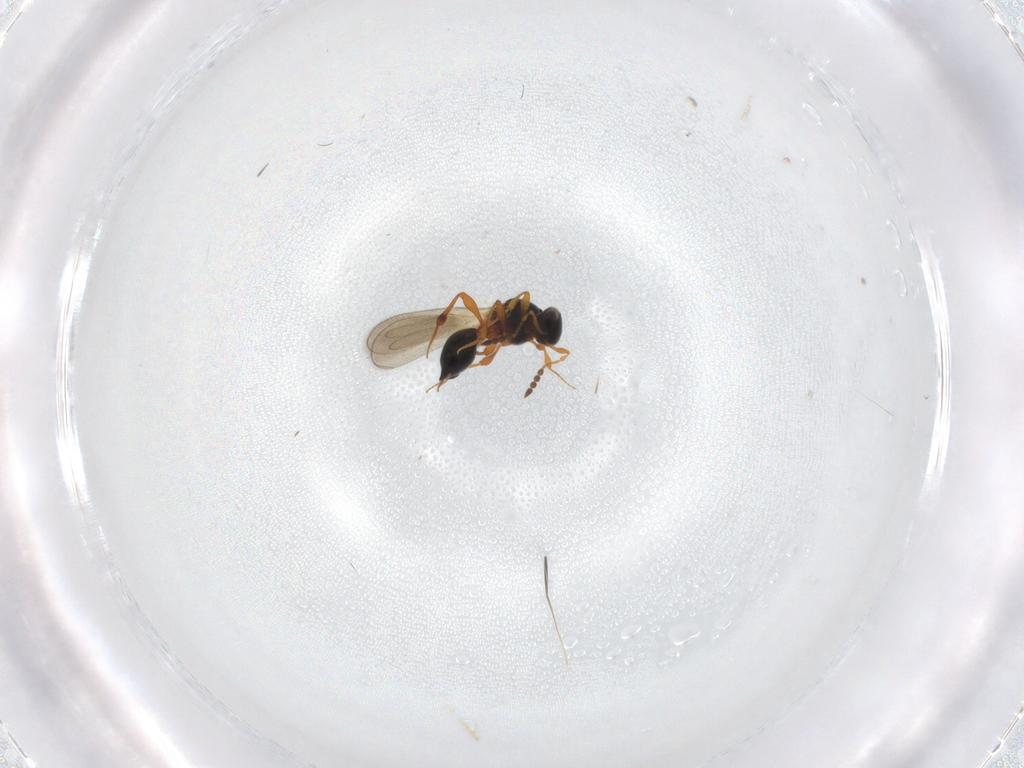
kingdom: Animalia
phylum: Arthropoda
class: Insecta
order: Hymenoptera
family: Platygastridae
